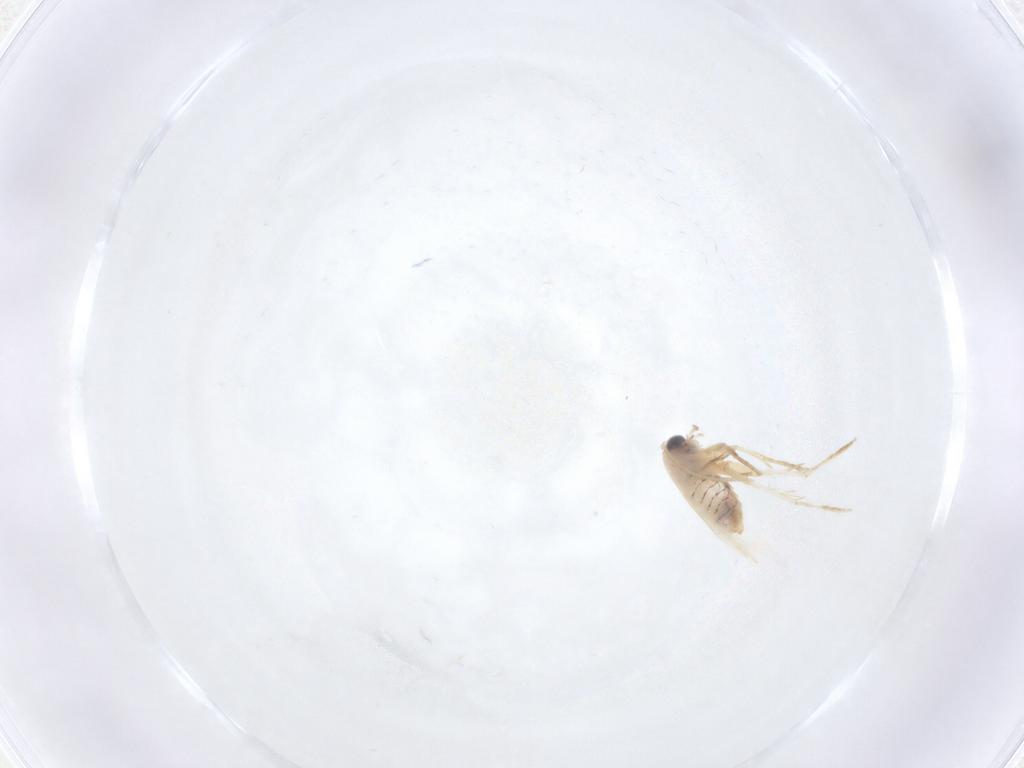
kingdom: Animalia
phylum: Arthropoda
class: Insecta
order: Lepidoptera
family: Nepticulidae
